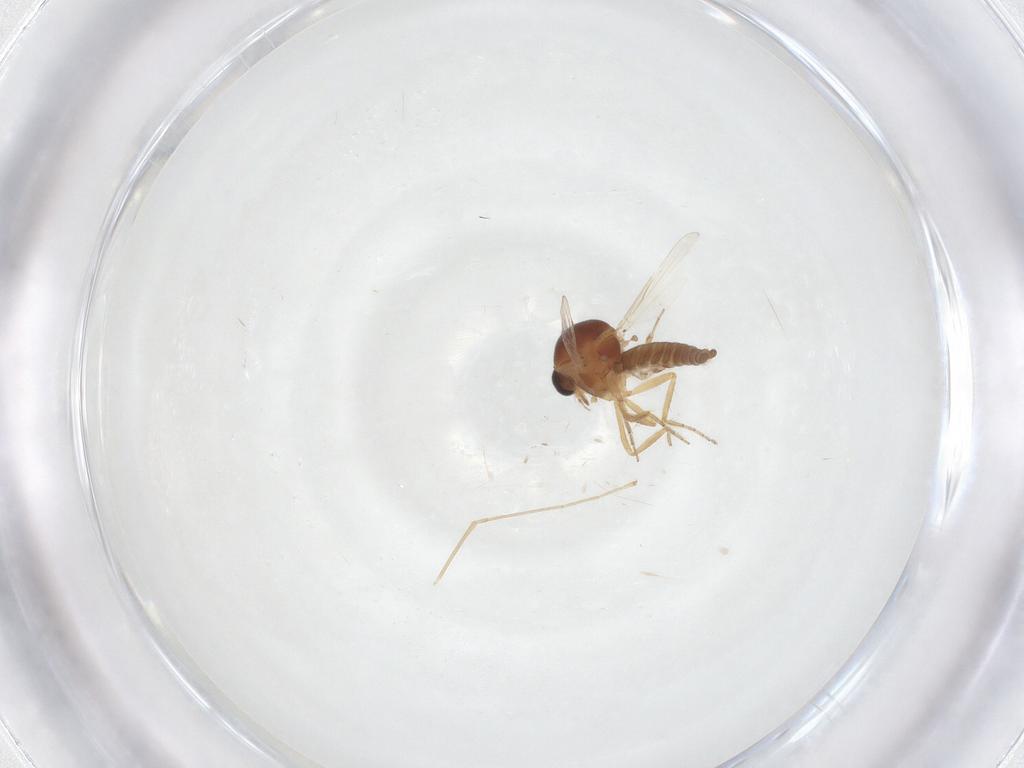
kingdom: Animalia
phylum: Arthropoda
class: Insecta
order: Diptera
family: Ceratopogonidae
